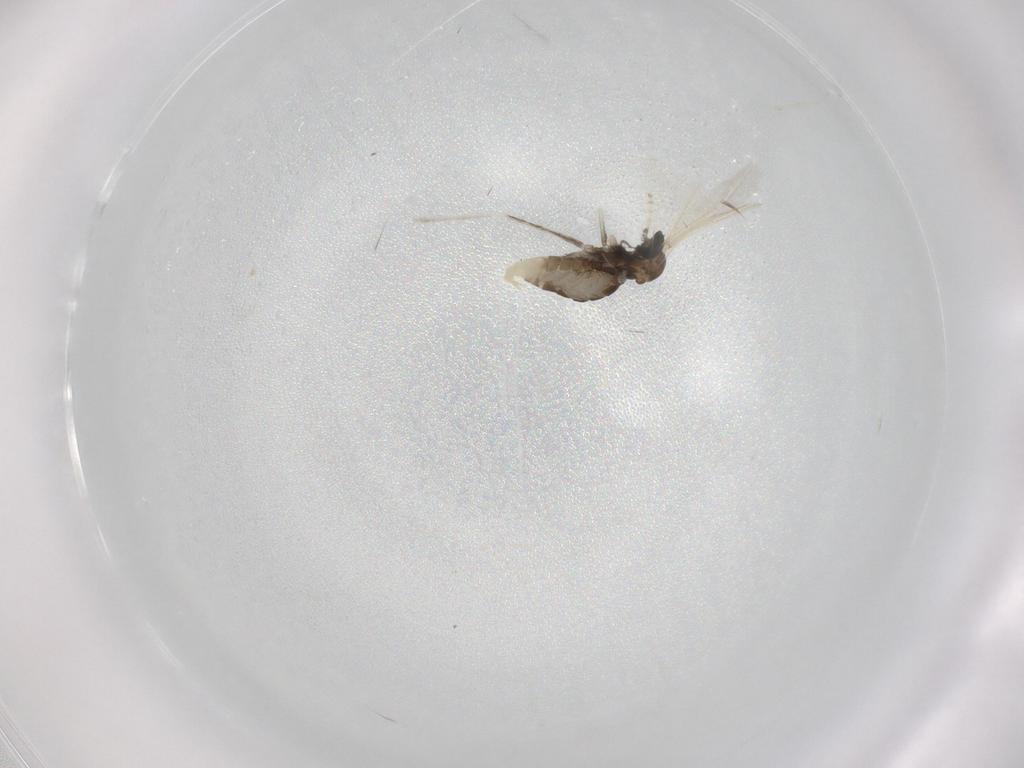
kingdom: Animalia
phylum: Arthropoda
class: Insecta
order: Diptera
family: Cecidomyiidae
